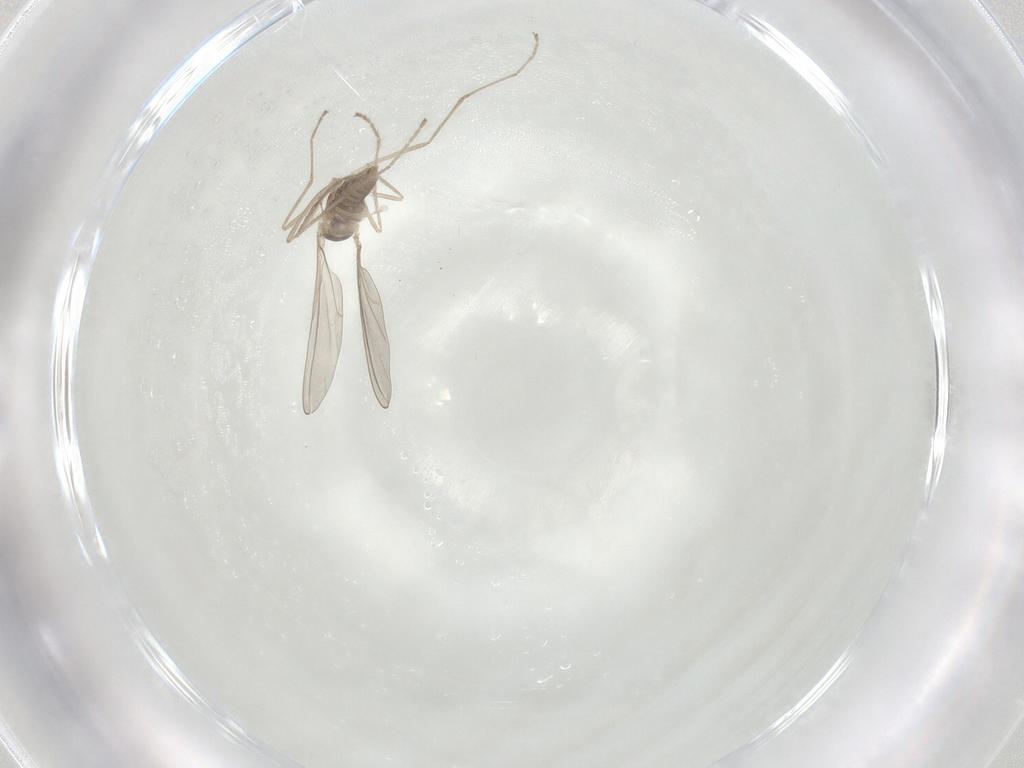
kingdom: Animalia
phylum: Arthropoda
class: Insecta
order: Diptera
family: Cecidomyiidae
